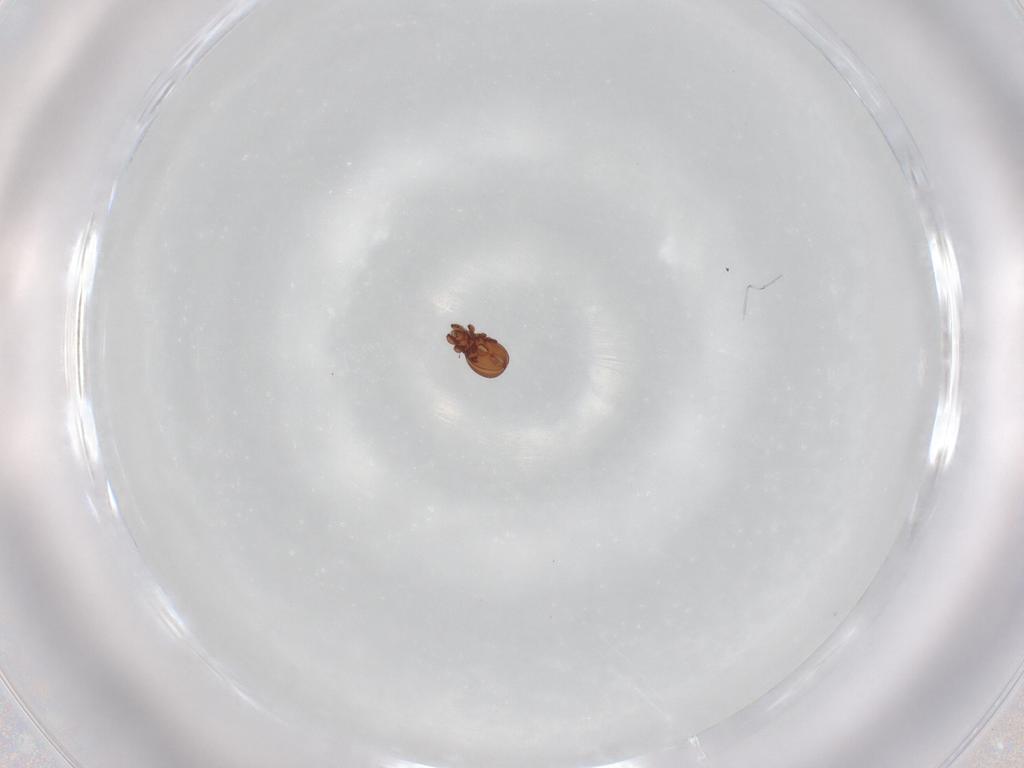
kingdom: Animalia
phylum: Arthropoda
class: Arachnida
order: Sarcoptiformes
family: Eremaeidae
